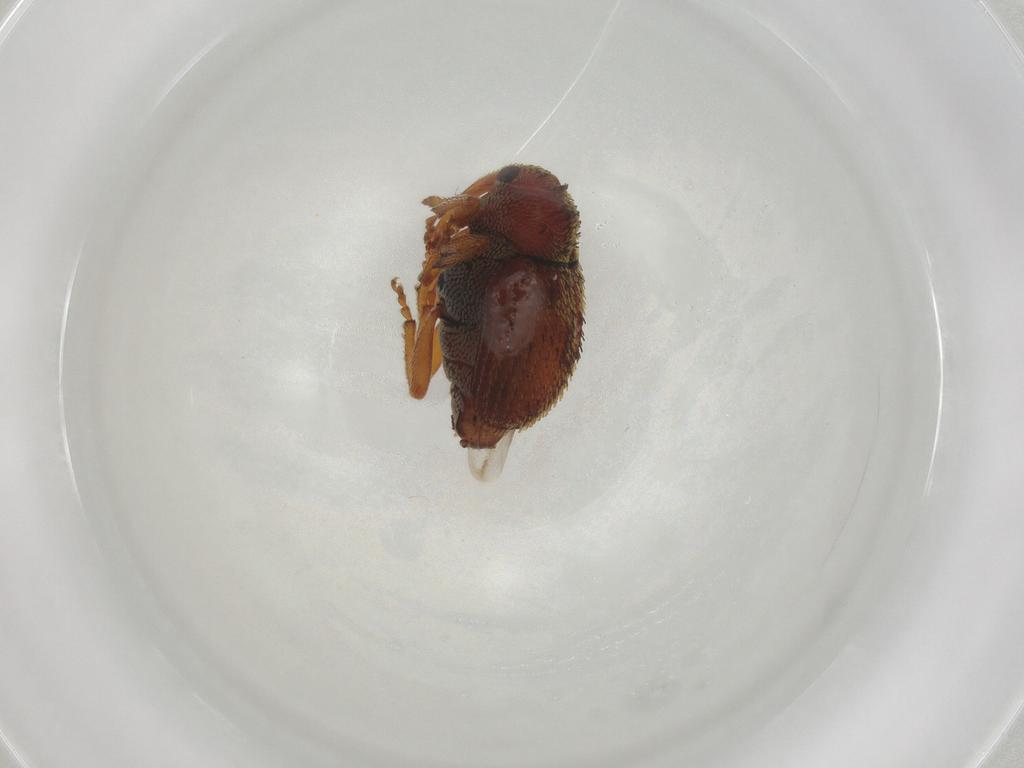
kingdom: Animalia
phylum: Arthropoda
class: Insecta
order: Coleoptera
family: Curculionidae
